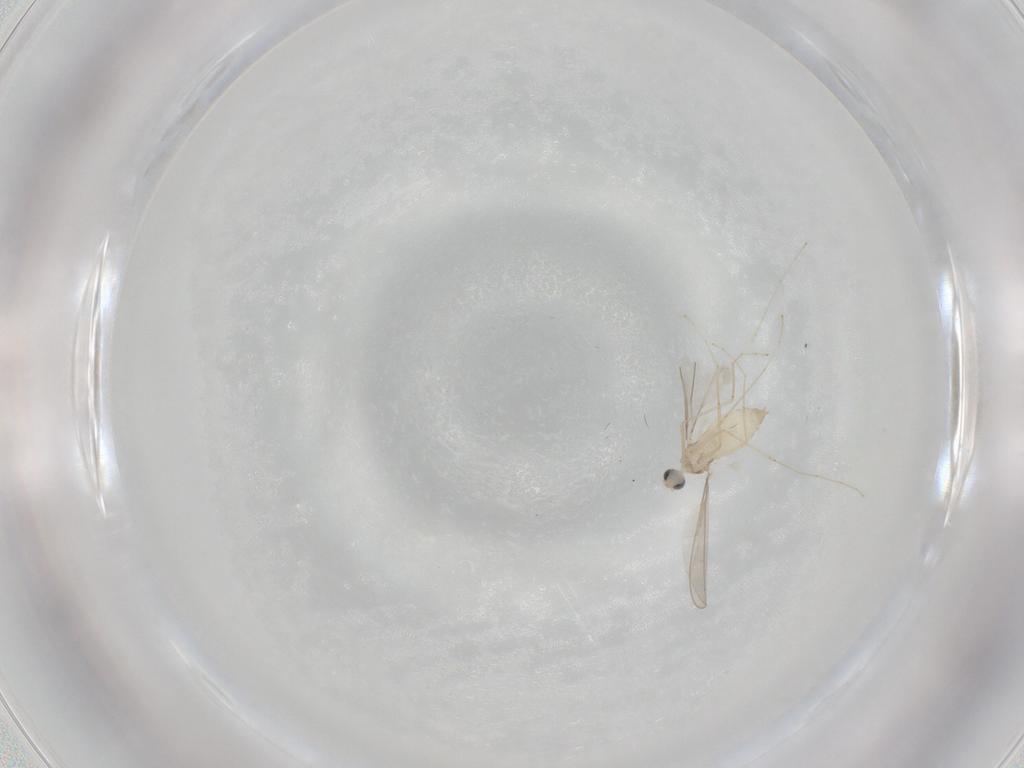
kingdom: Animalia
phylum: Arthropoda
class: Insecta
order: Diptera
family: Cecidomyiidae
